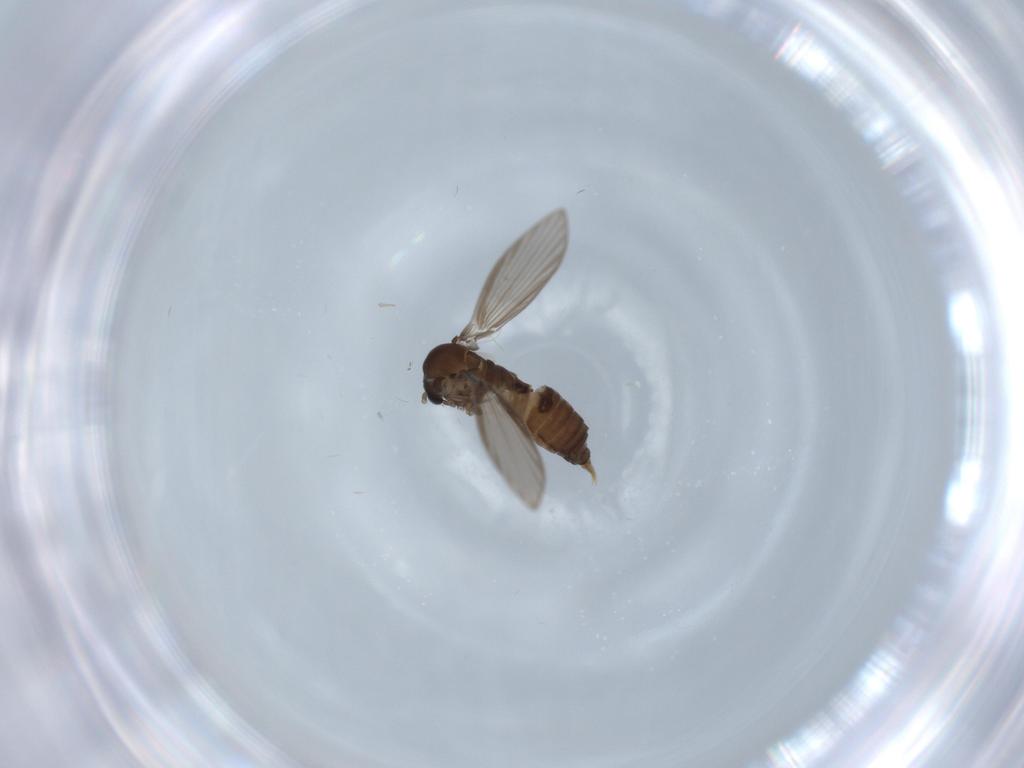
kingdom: Animalia
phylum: Arthropoda
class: Insecta
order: Diptera
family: Psychodidae
